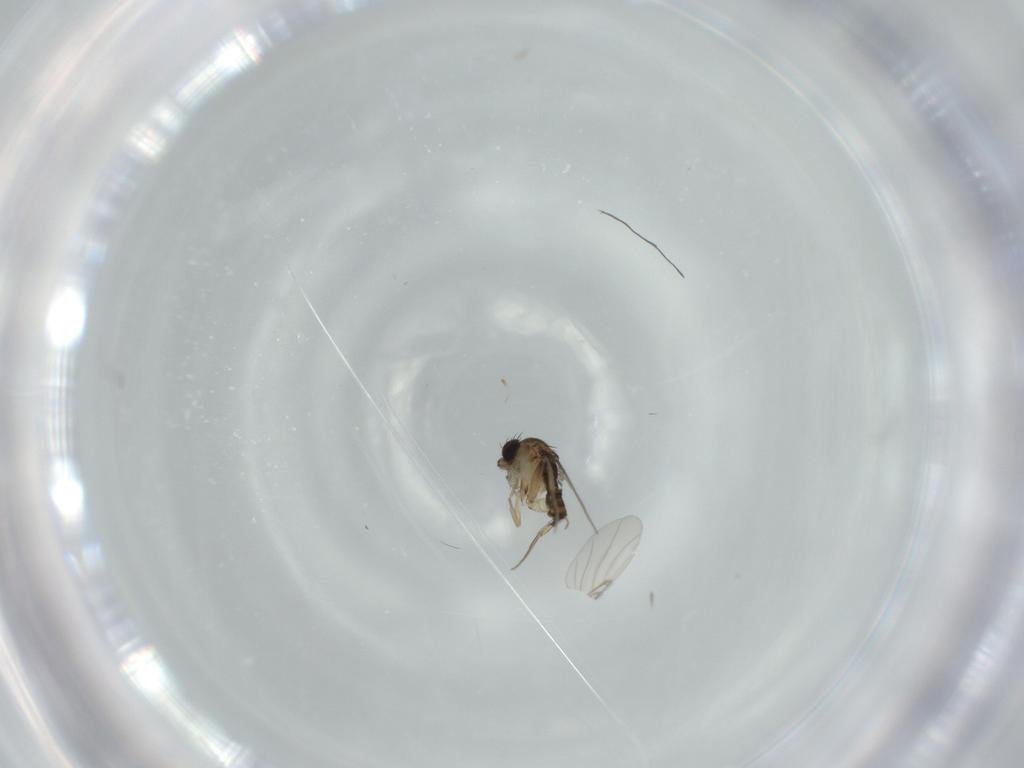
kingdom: Animalia
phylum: Arthropoda
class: Insecta
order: Diptera
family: Phoridae
